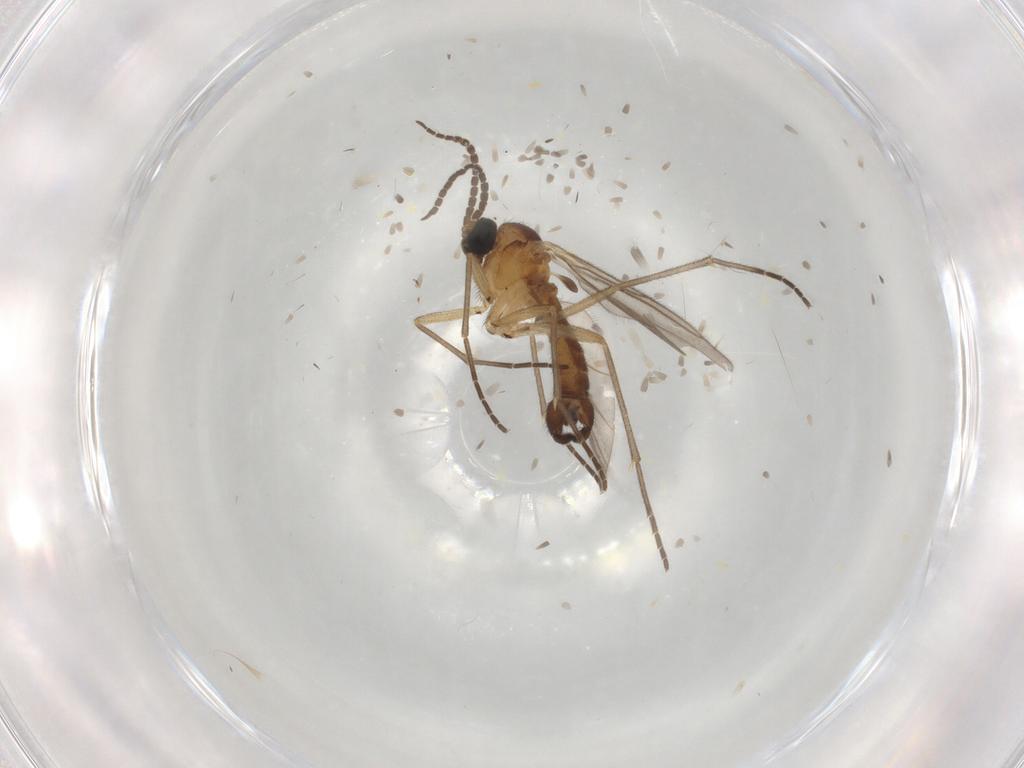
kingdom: Animalia
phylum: Arthropoda
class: Insecta
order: Diptera
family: Sciaridae
